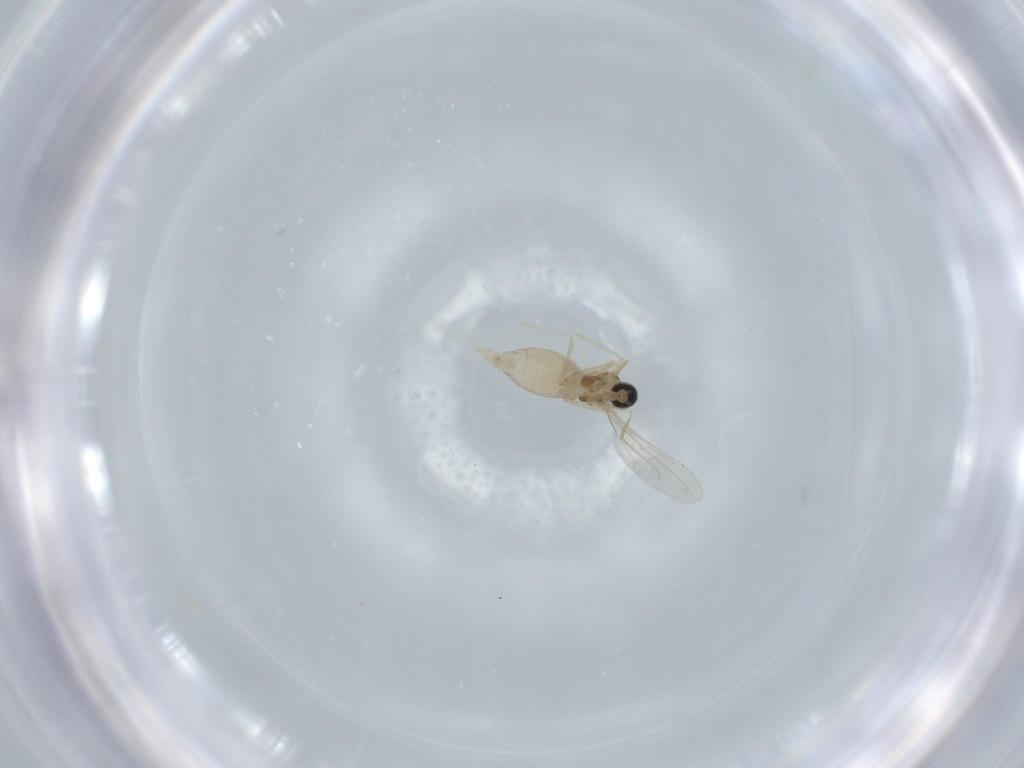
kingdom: Animalia
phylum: Arthropoda
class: Insecta
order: Diptera
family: Cecidomyiidae
